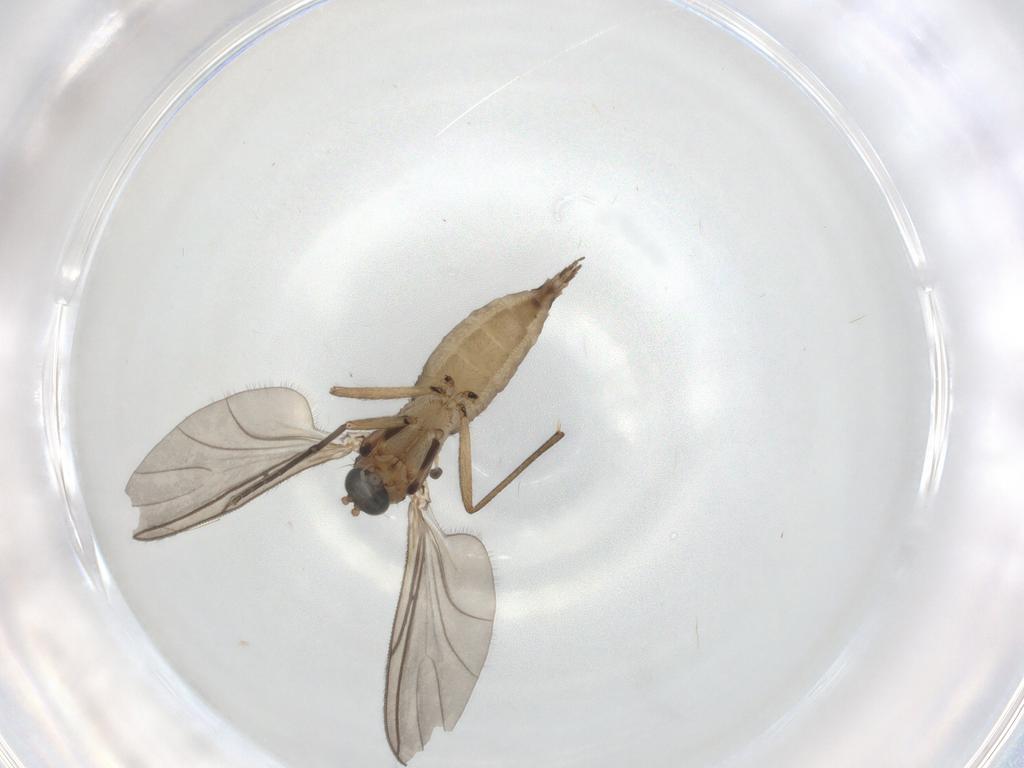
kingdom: Animalia
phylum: Arthropoda
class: Insecta
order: Diptera
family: Sciaridae
